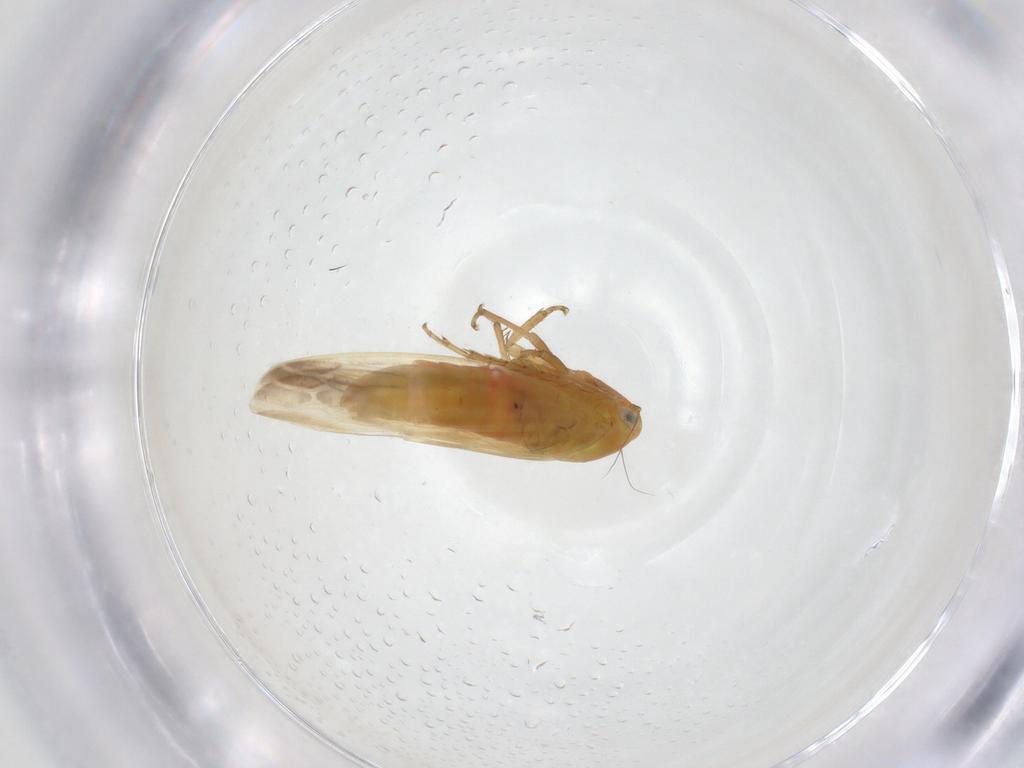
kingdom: Animalia
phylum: Arthropoda
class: Insecta
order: Hemiptera
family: Cicadellidae
